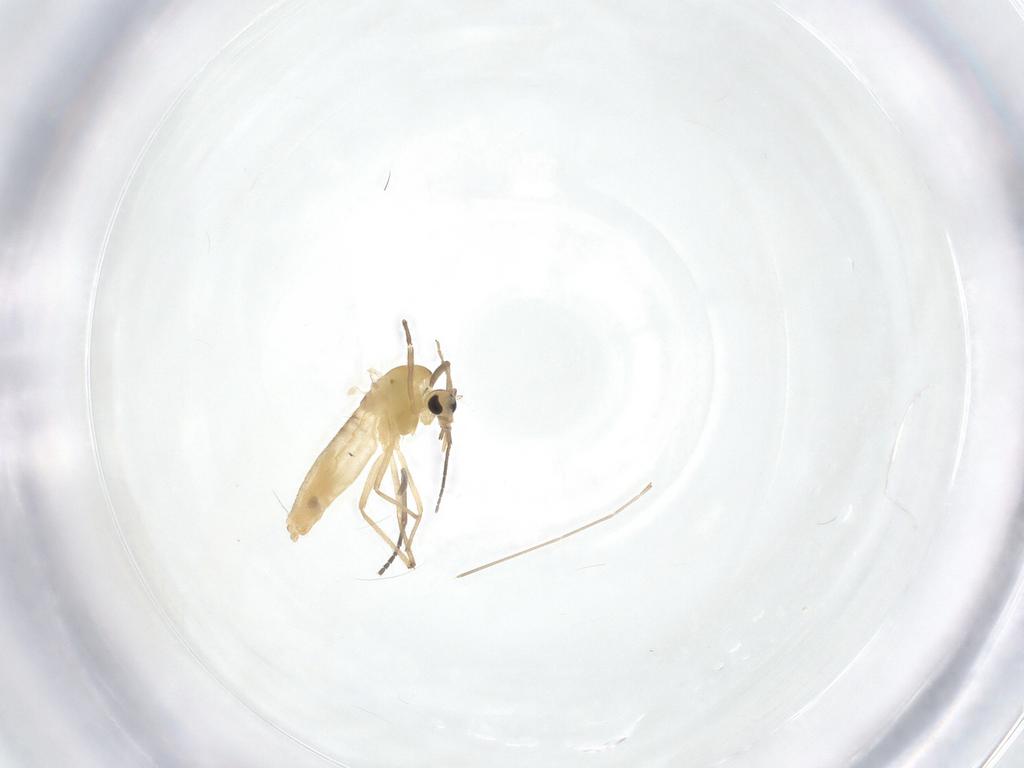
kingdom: Animalia
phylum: Arthropoda
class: Insecta
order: Diptera
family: Chironomidae
